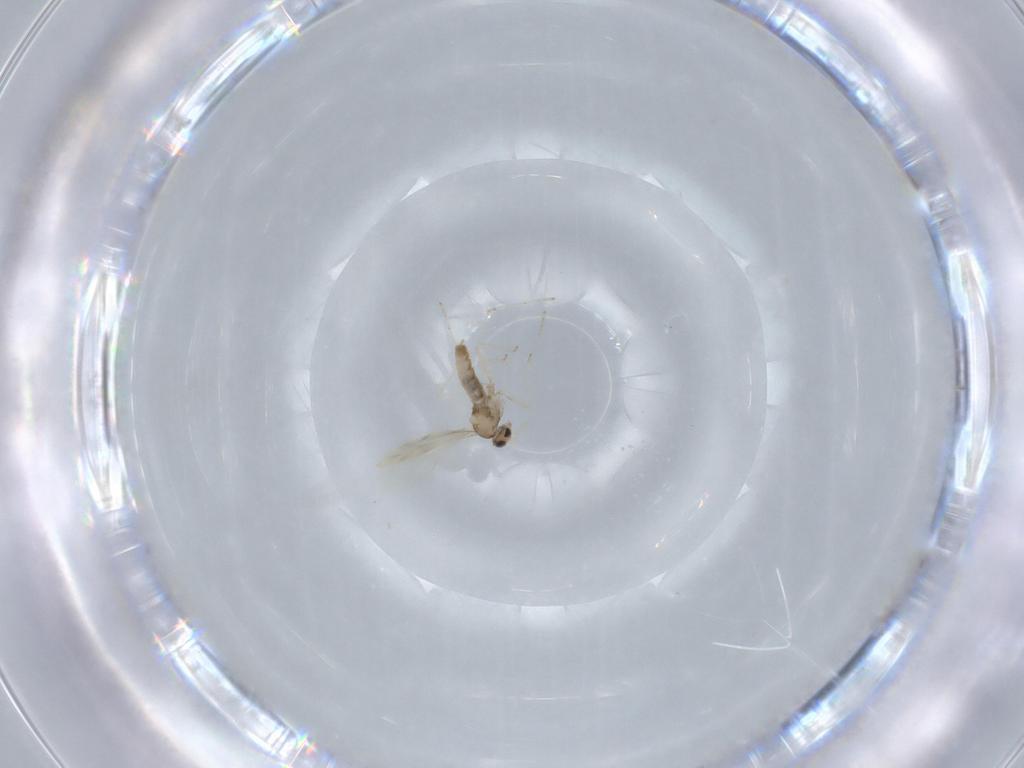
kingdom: Animalia
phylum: Arthropoda
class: Insecta
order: Diptera
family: Cecidomyiidae
